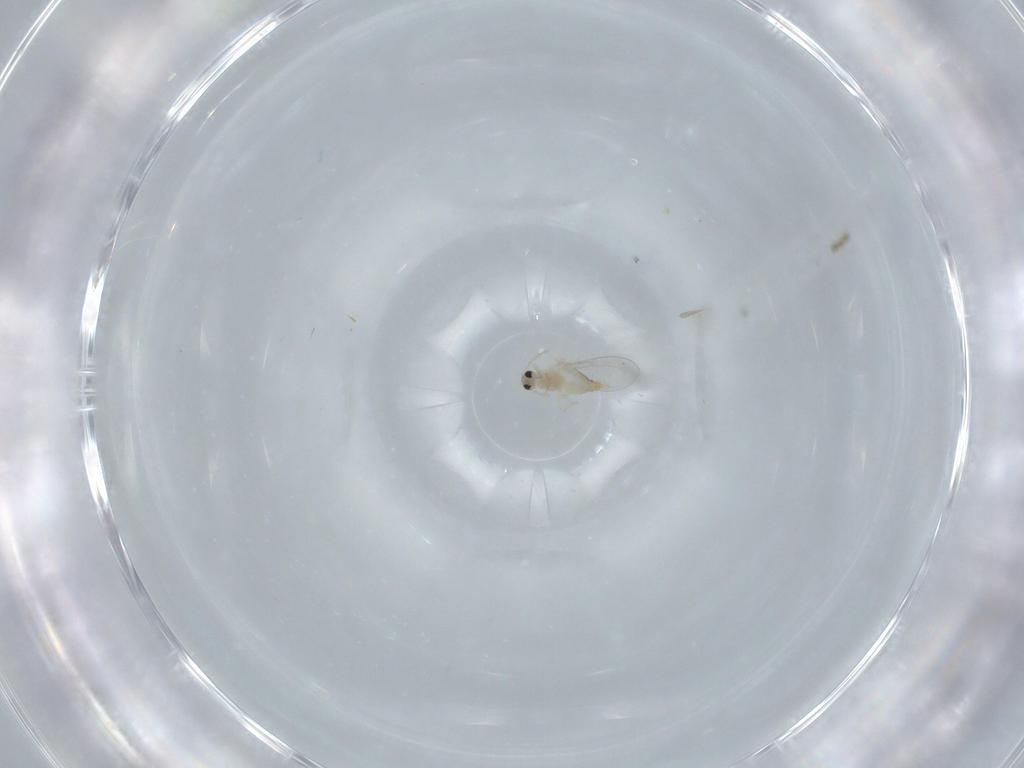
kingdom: Animalia
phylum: Arthropoda
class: Insecta
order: Diptera
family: Cecidomyiidae
